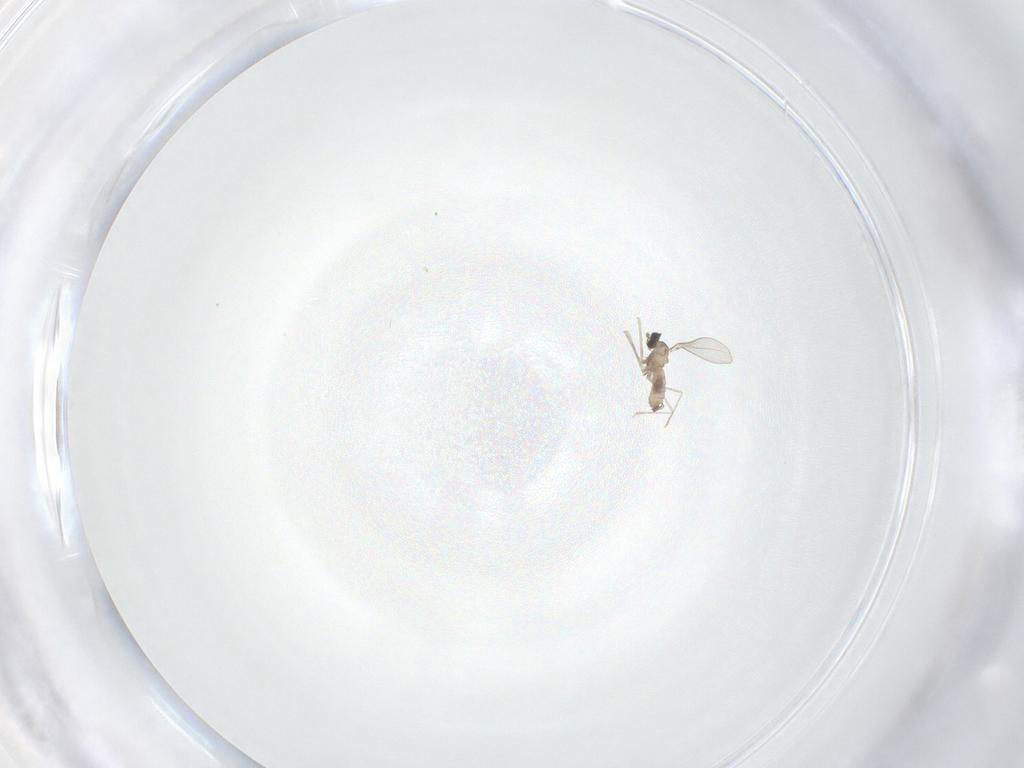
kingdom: Animalia
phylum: Arthropoda
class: Insecta
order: Diptera
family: Cecidomyiidae
